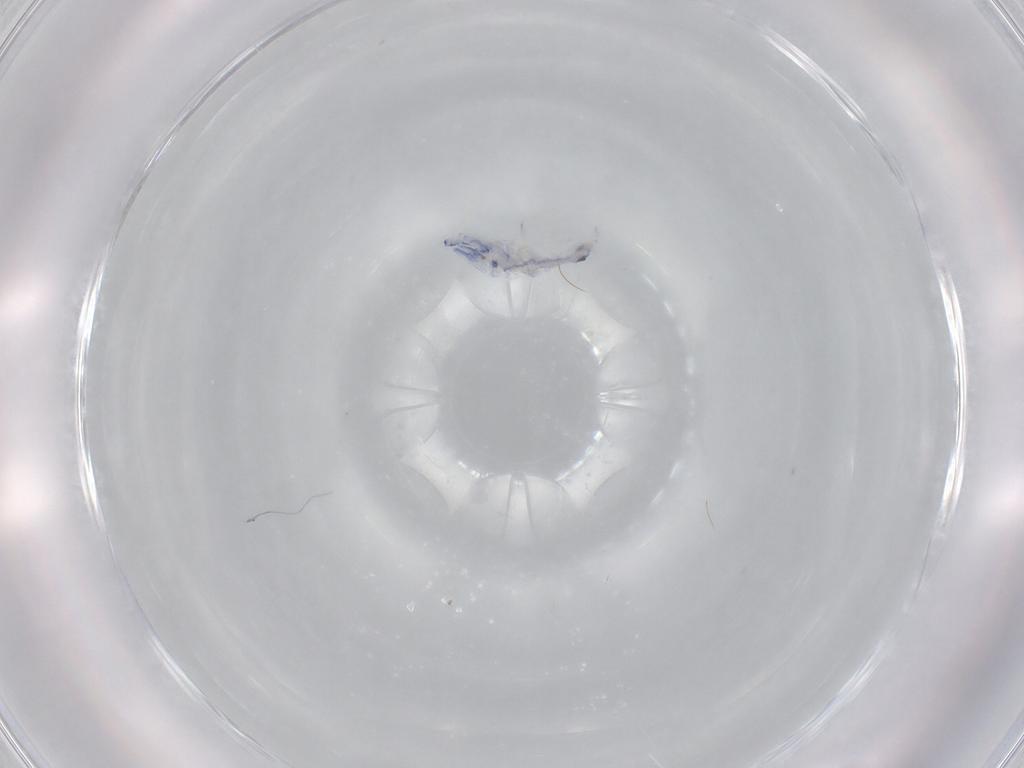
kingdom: Animalia
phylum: Arthropoda
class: Collembola
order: Entomobryomorpha
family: Entomobryidae
